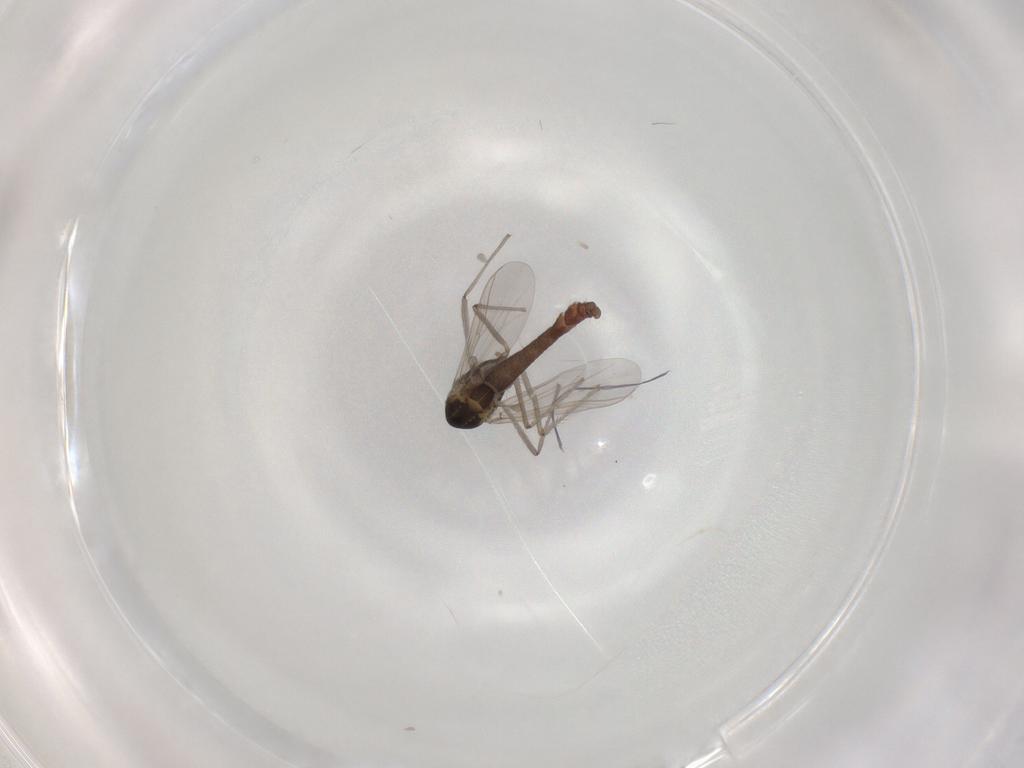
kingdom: Animalia
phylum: Arthropoda
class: Insecta
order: Diptera
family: Chironomidae
